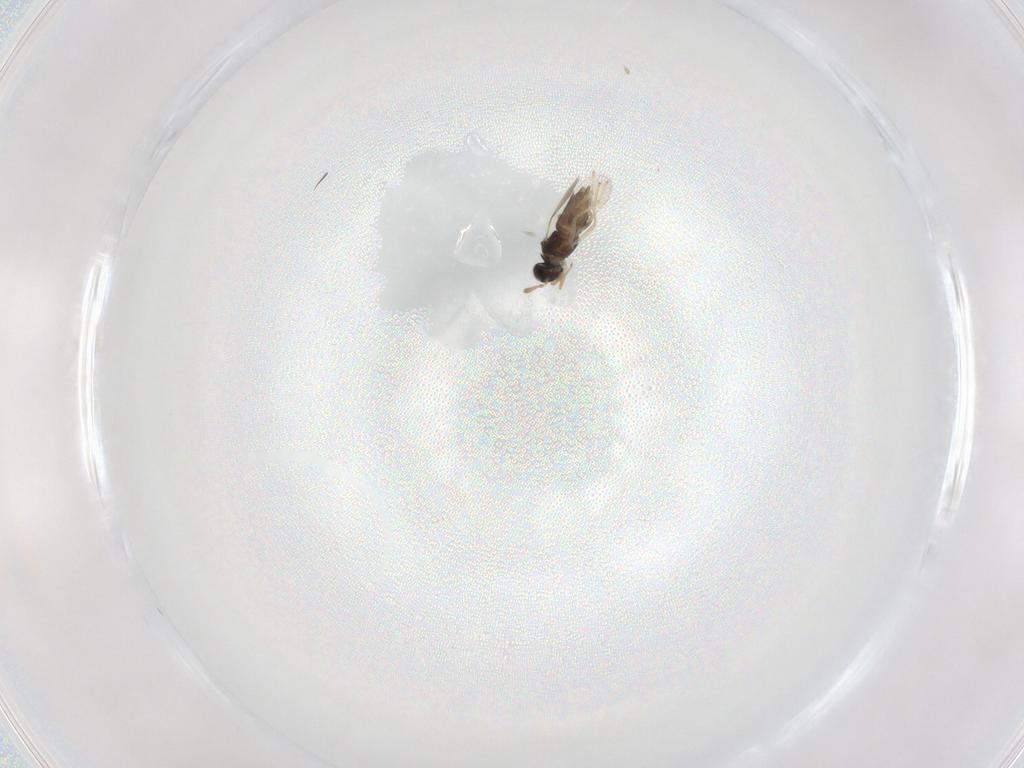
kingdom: Animalia
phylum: Arthropoda
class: Insecta
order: Hymenoptera
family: Encyrtidae
